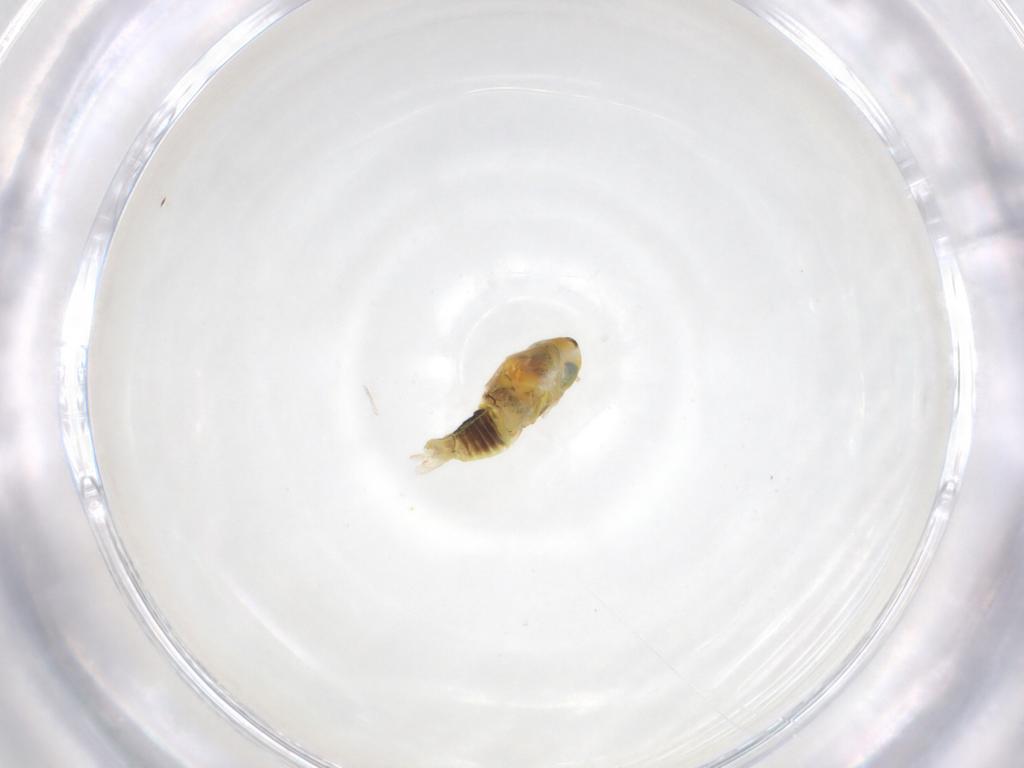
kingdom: Animalia
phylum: Arthropoda
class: Insecta
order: Hemiptera
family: Cicadellidae
